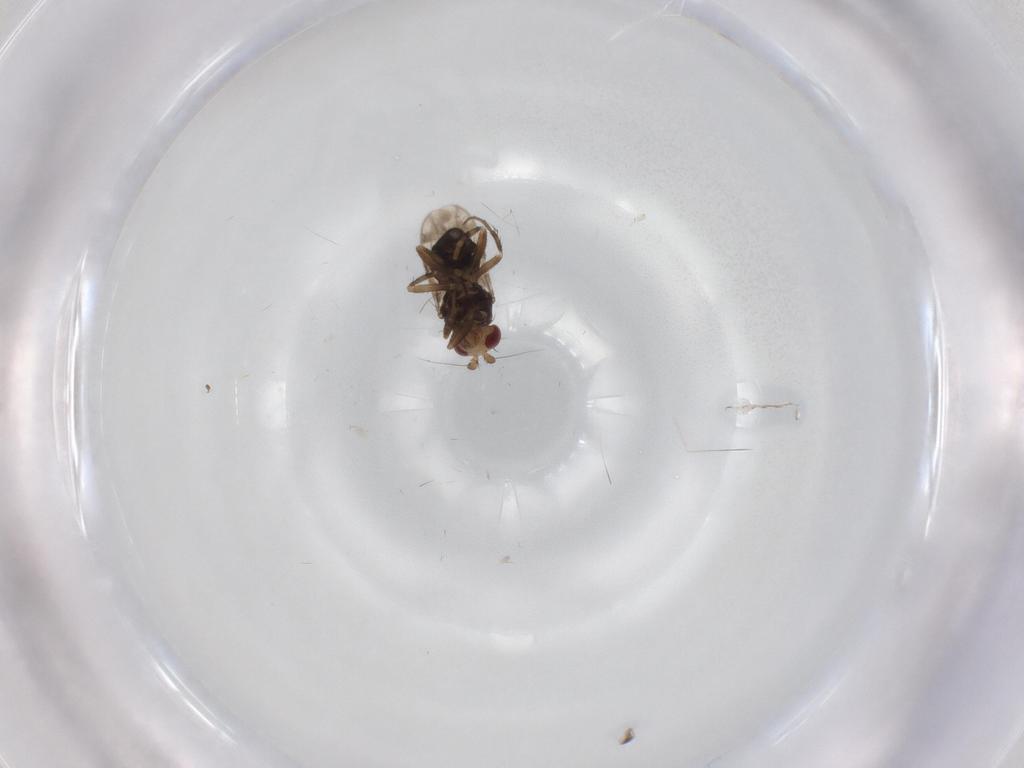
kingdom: Animalia
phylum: Arthropoda
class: Insecta
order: Diptera
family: Sphaeroceridae
